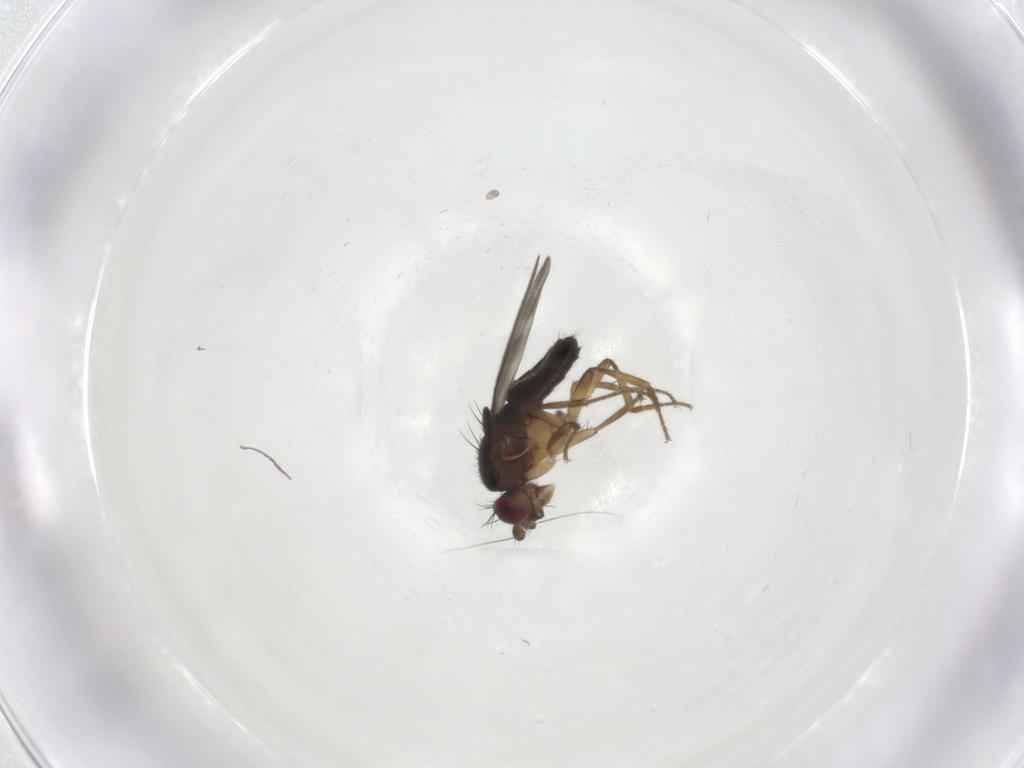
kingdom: Animalia
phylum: Arthropoda
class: Insecta
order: Diptera
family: Sphaeroceridae
